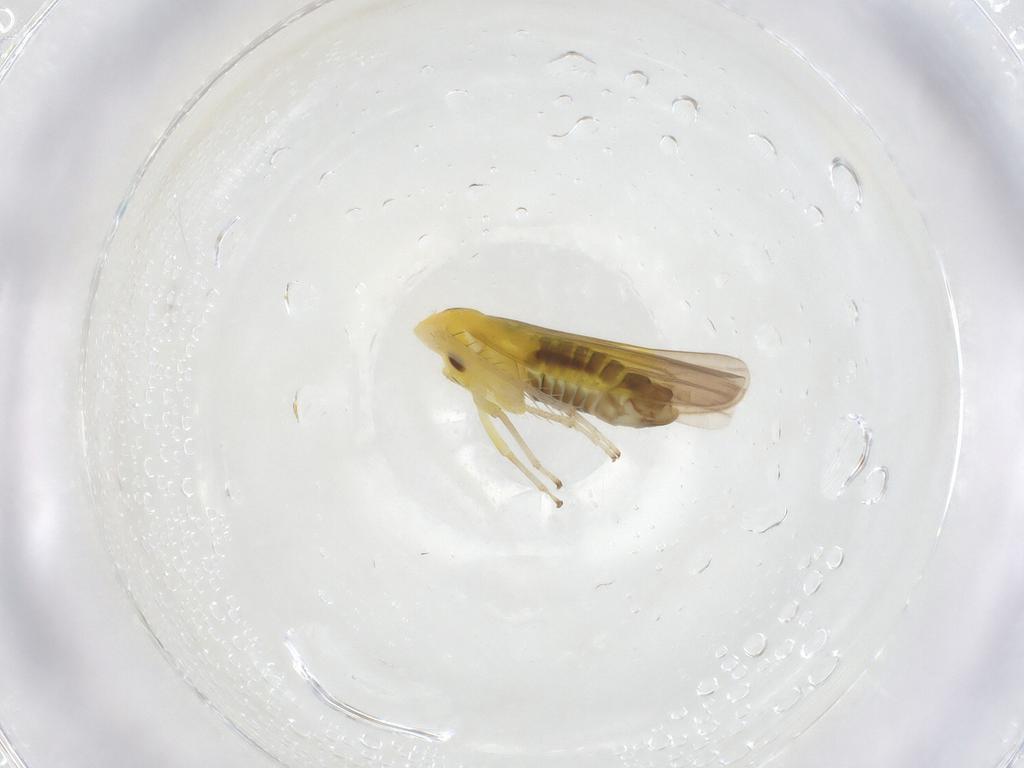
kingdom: Animalia
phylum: Arthropoda
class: Insecta
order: Hemiptera
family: Cicadellidae
